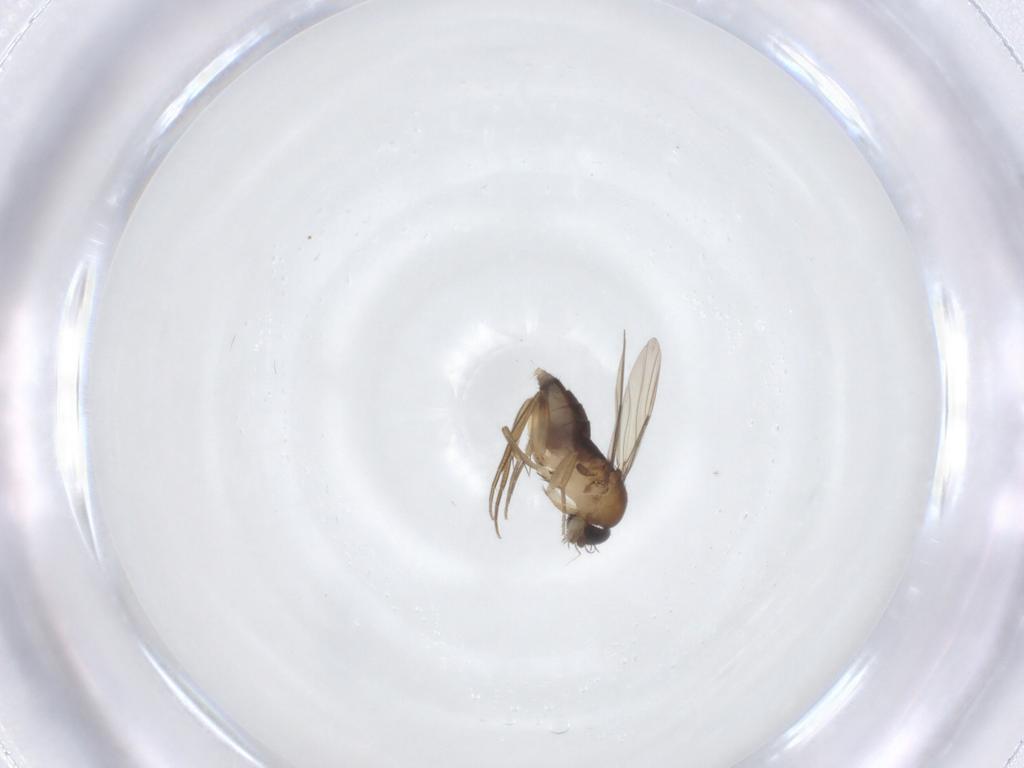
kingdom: Animalia
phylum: Arthropoda
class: Insecta
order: Diptera
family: Phoridae
